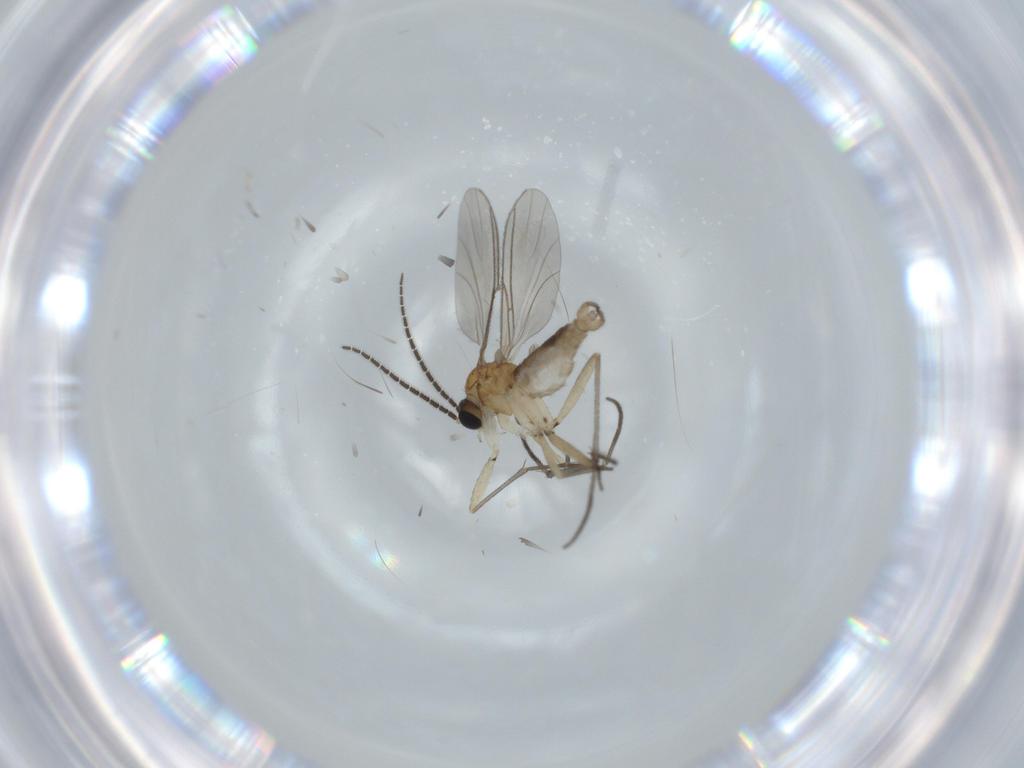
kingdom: Animalia
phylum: Arthropoda
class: Insecta
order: Diptera
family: Sciaridae
